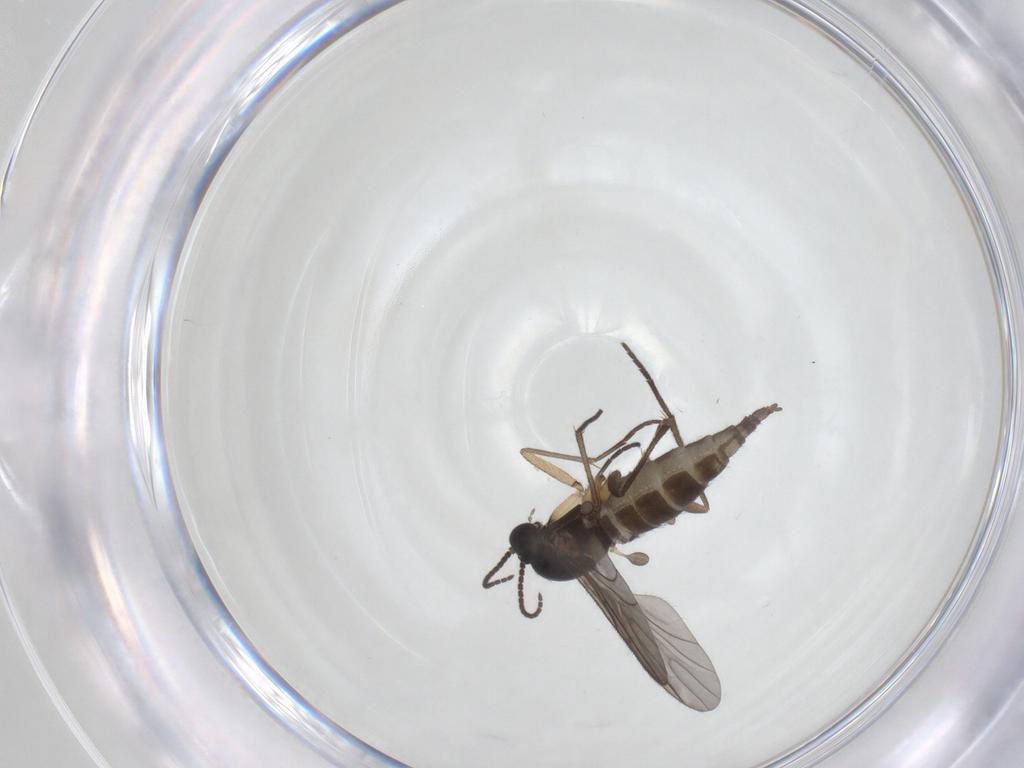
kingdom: Animalia
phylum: Arthropoda
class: Insecta
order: Diptera
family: Sciaridae
